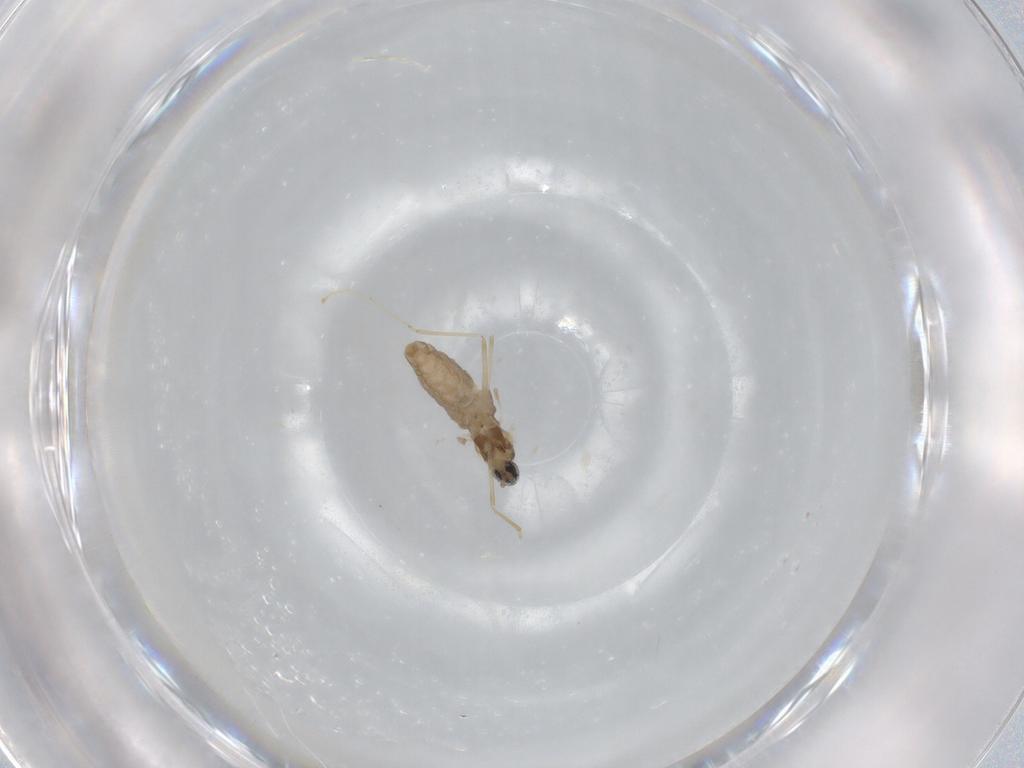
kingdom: Animalia
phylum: Arthropoda
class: Insecta
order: Diptera
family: Cecidomyiidae
